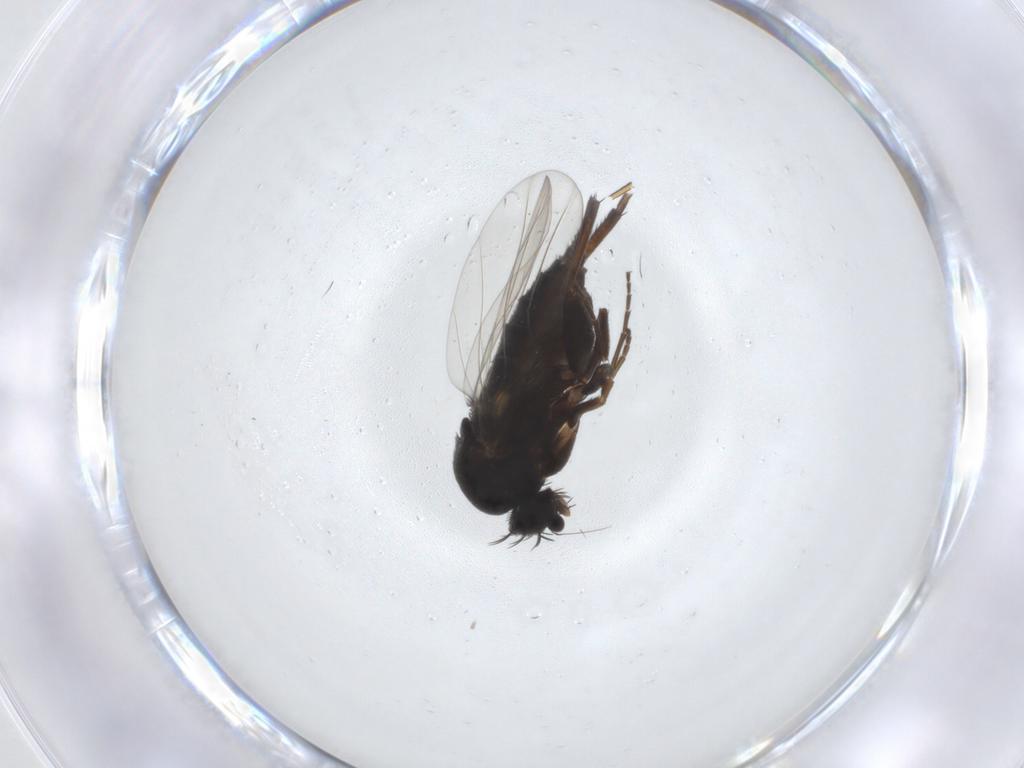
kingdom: Animalia
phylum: Arthropoda
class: Insecta
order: Diptera
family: Phoridae
